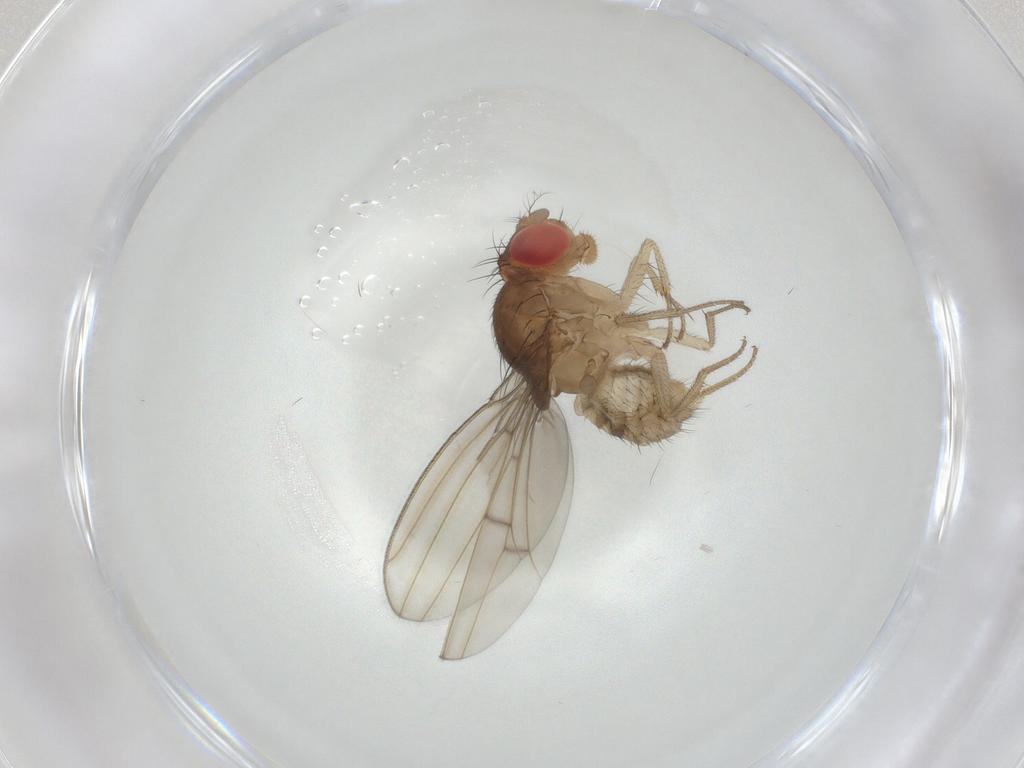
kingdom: Animalia
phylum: Arthropoda
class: Insecta
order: Diptera
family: Drosophilidae
